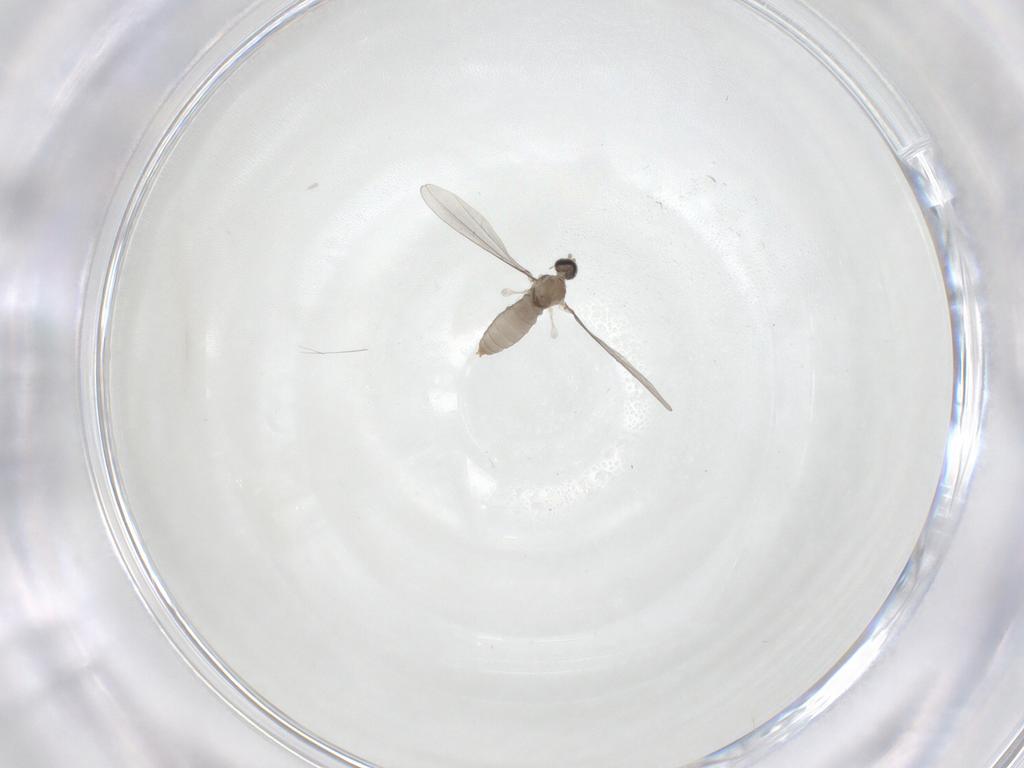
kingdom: Animalia
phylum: Arthropoda
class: Insecta
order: Diptera
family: Cecidomyiidae
